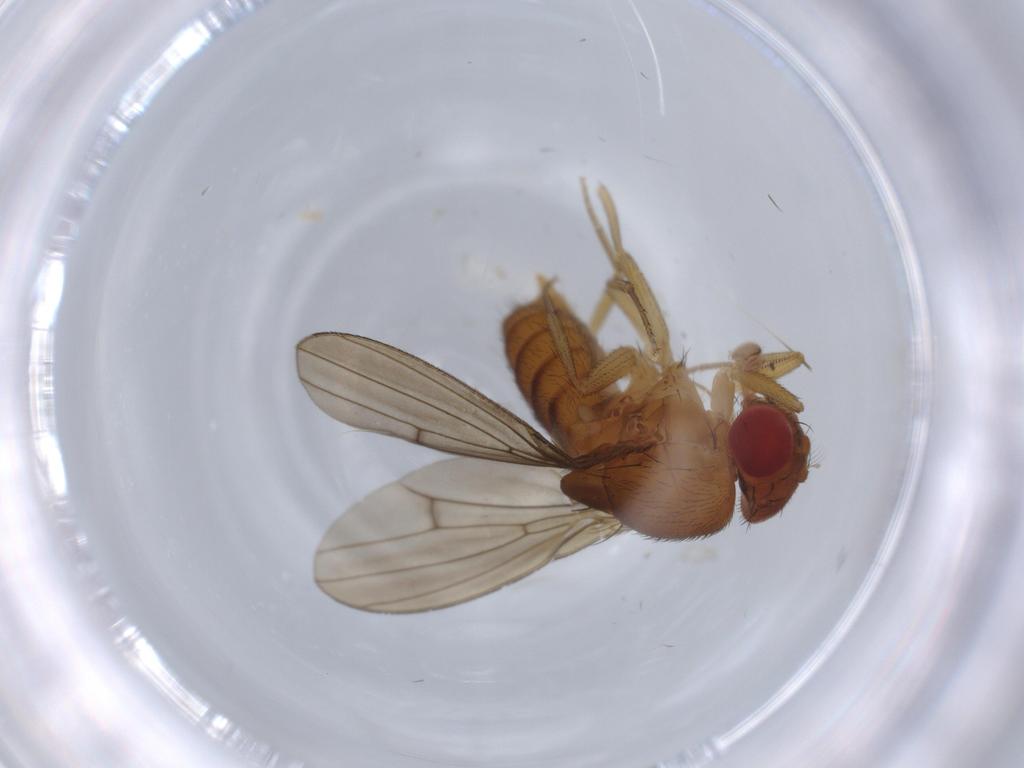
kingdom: Animalia
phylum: Arthropoda
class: Insecta
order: Diptera
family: Drosophilidae
